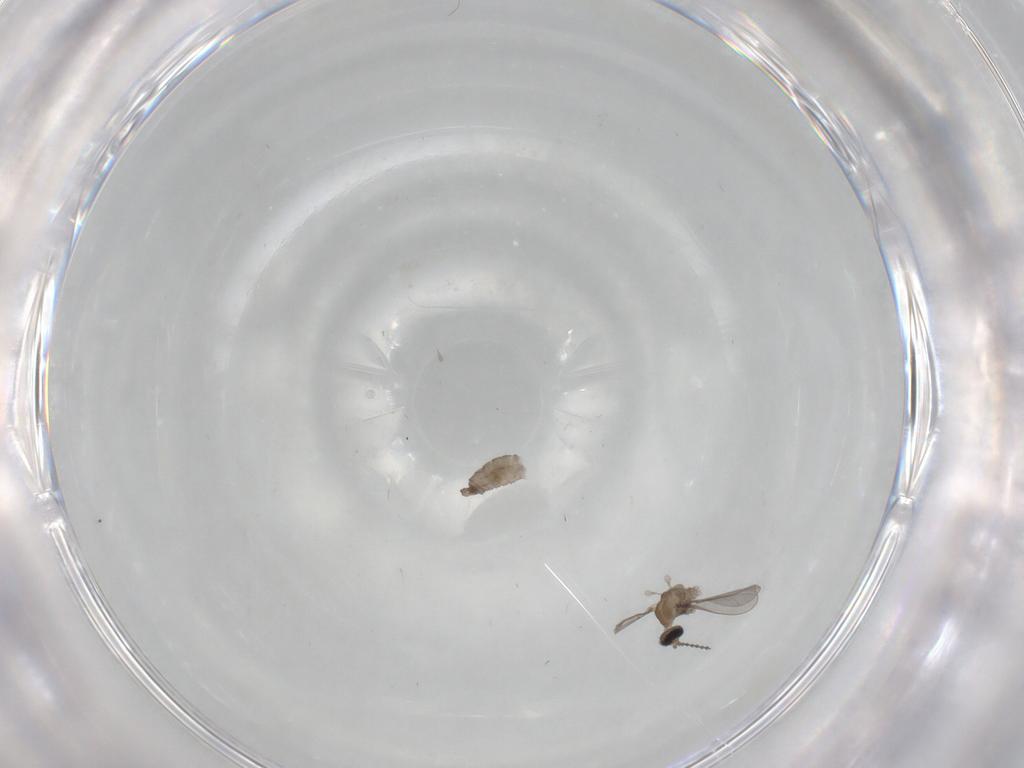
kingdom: Animalia
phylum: Arthropoda
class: Insecta
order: Diptera
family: Cecidomyiidae
